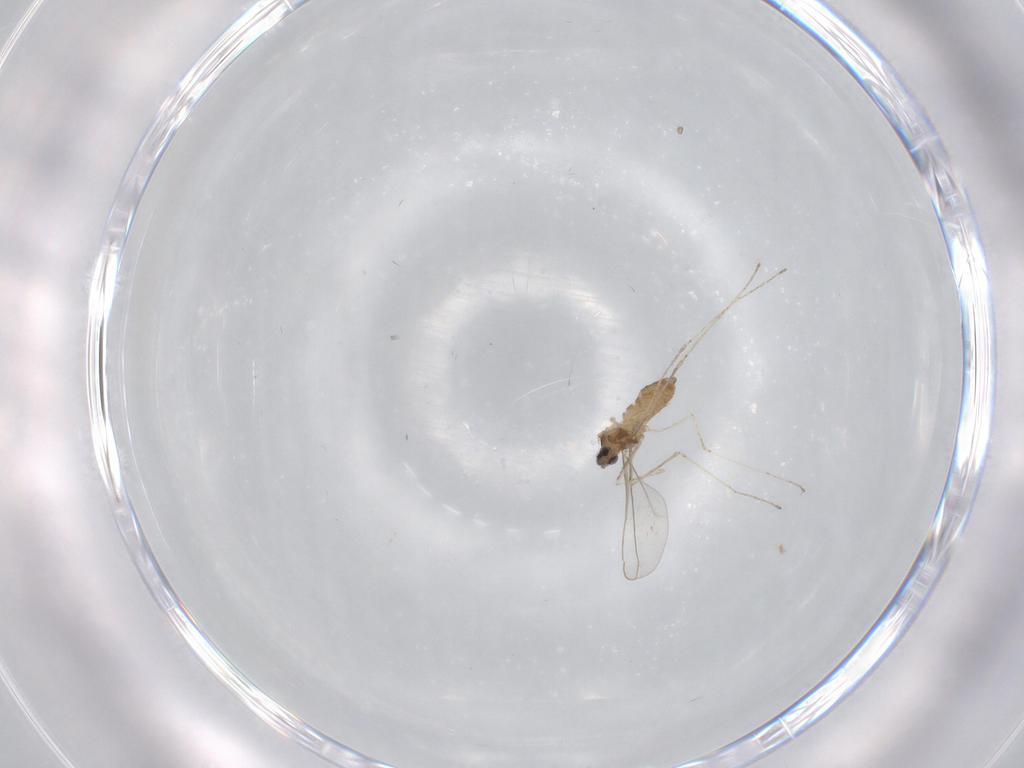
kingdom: Animalia
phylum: Arthropoda
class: Insecta
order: Diptera
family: Cecidomyiidae
